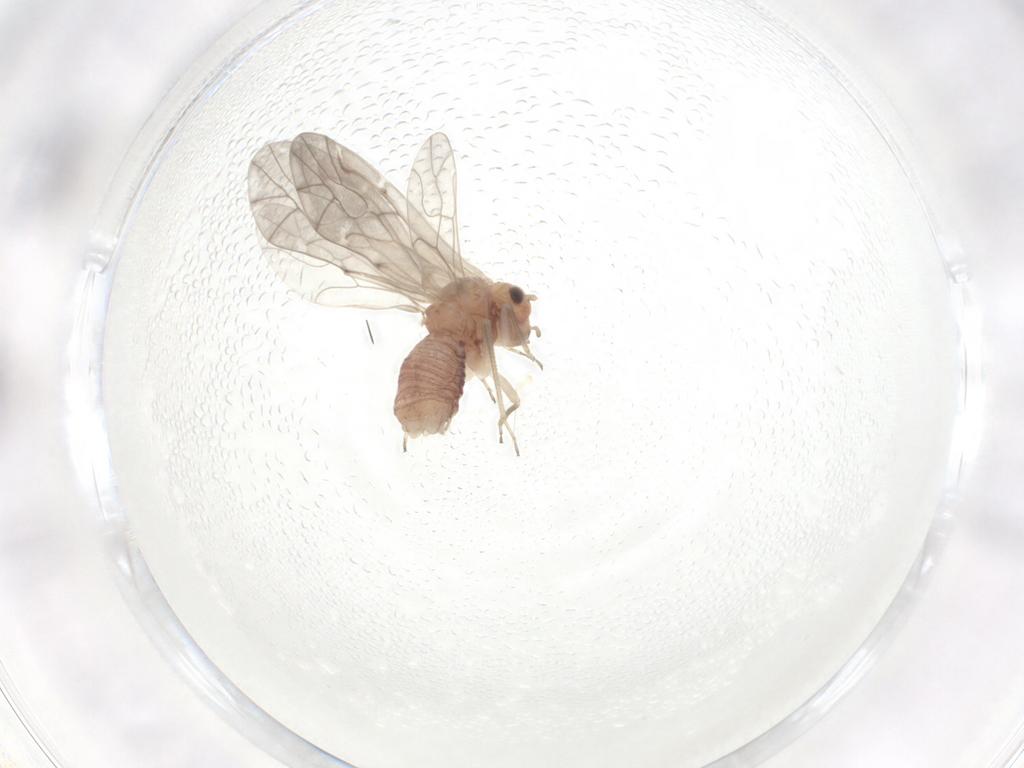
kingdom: Animalia
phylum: Arthropoda
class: Insecta
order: Psocodea
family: Peripsocidae
